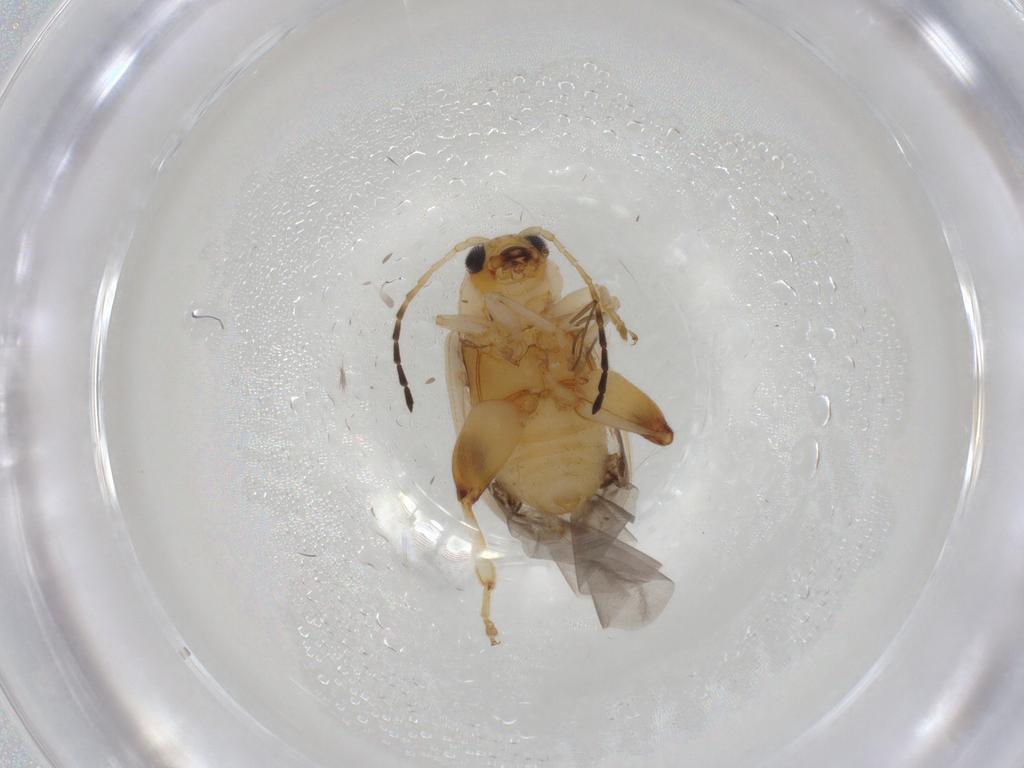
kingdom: Animalia
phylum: Arthropoda
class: Insecta
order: Coleoptera
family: Chrysomelidae
